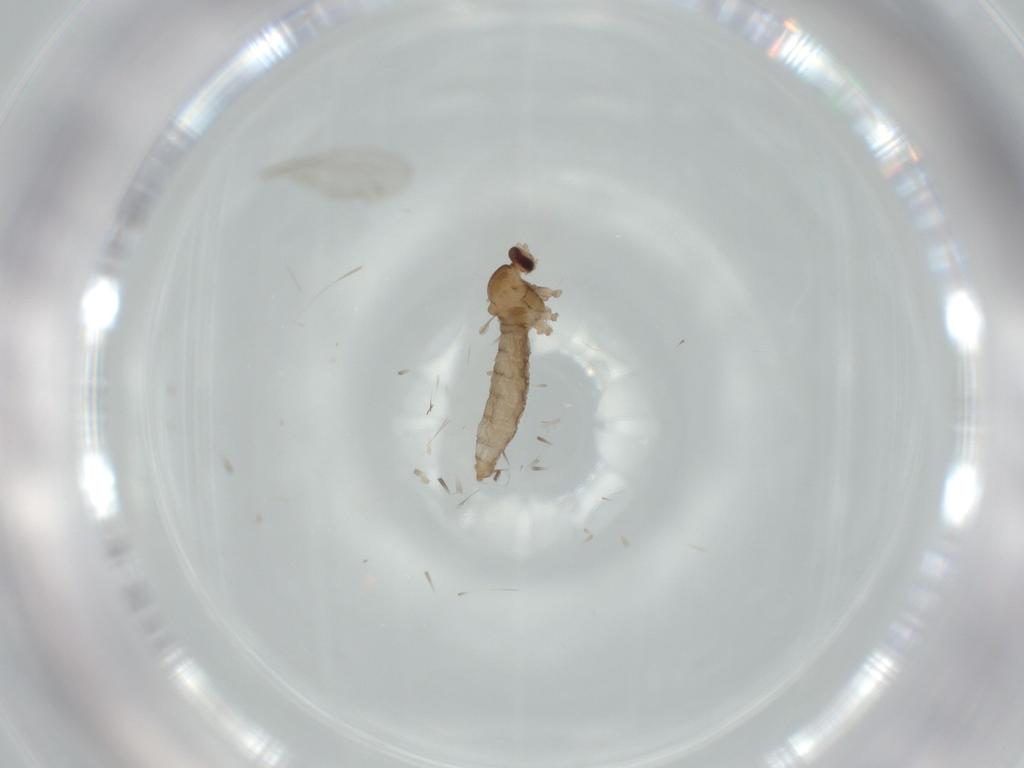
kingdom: Animalia
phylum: Arthropoda
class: Insecta
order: Diptera
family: Cecidomyiidae
